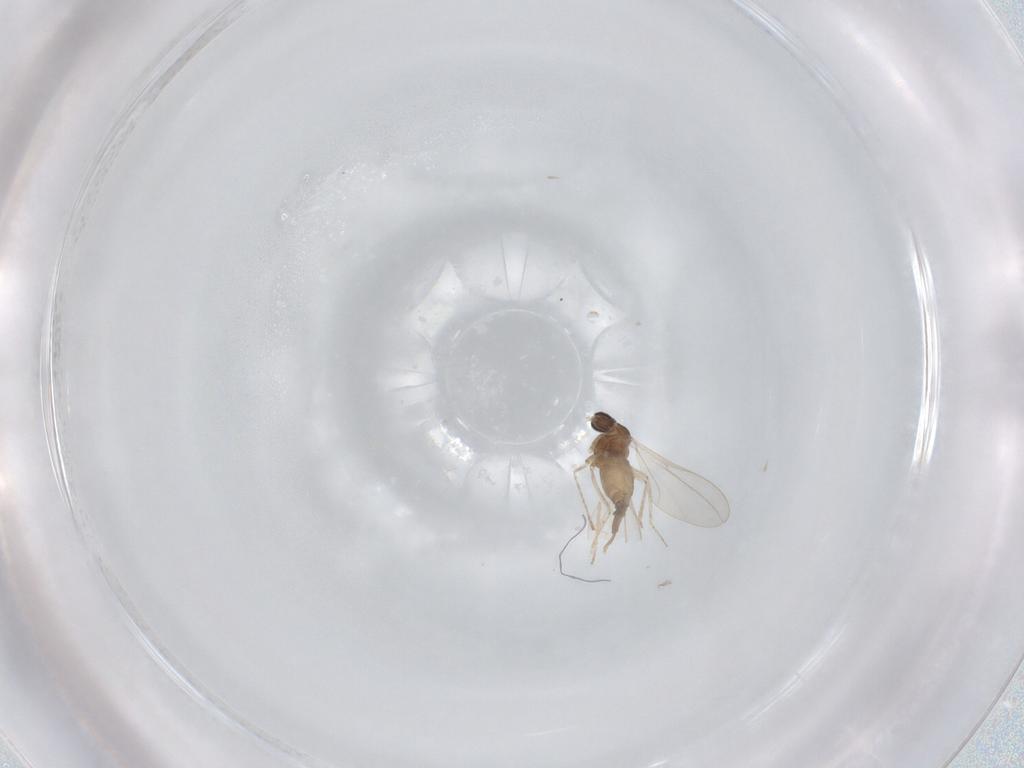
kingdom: Animalia
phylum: Arthropoda
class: Insecta
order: Diptera
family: Cecidomyiidae
